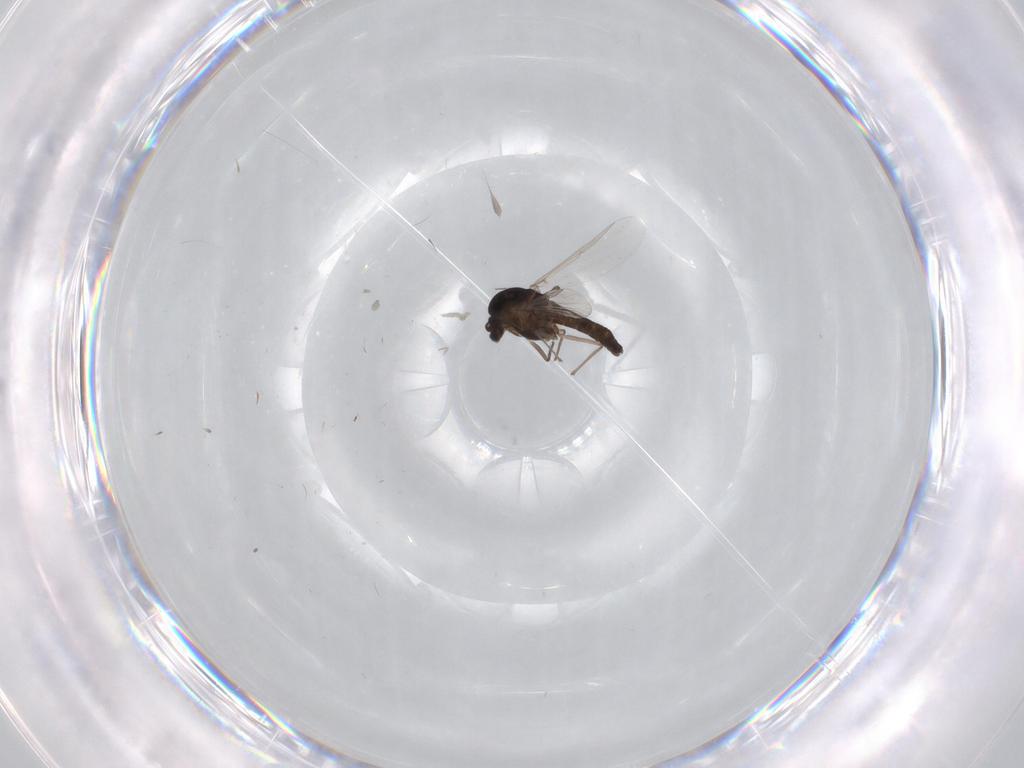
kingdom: Animalia
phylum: Arthropoda
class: Insecta
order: Diptera
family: Chironomidae
